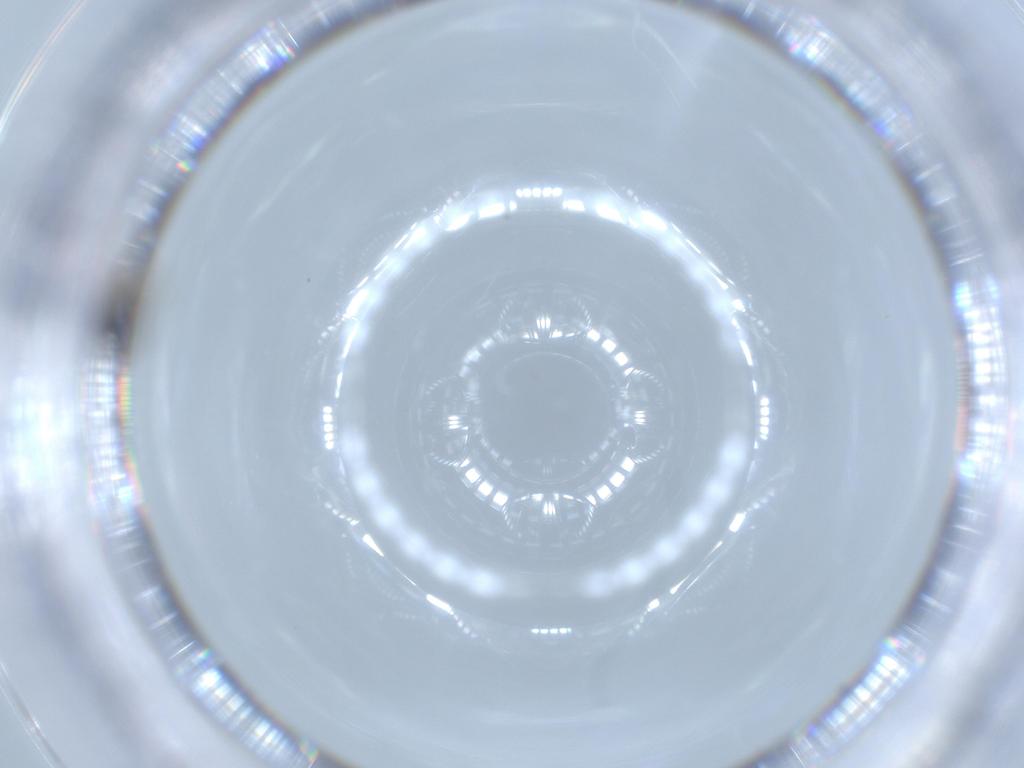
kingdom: Animalia
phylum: Arthropoda
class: Insecta
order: Blattodea
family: Ectobiidae
